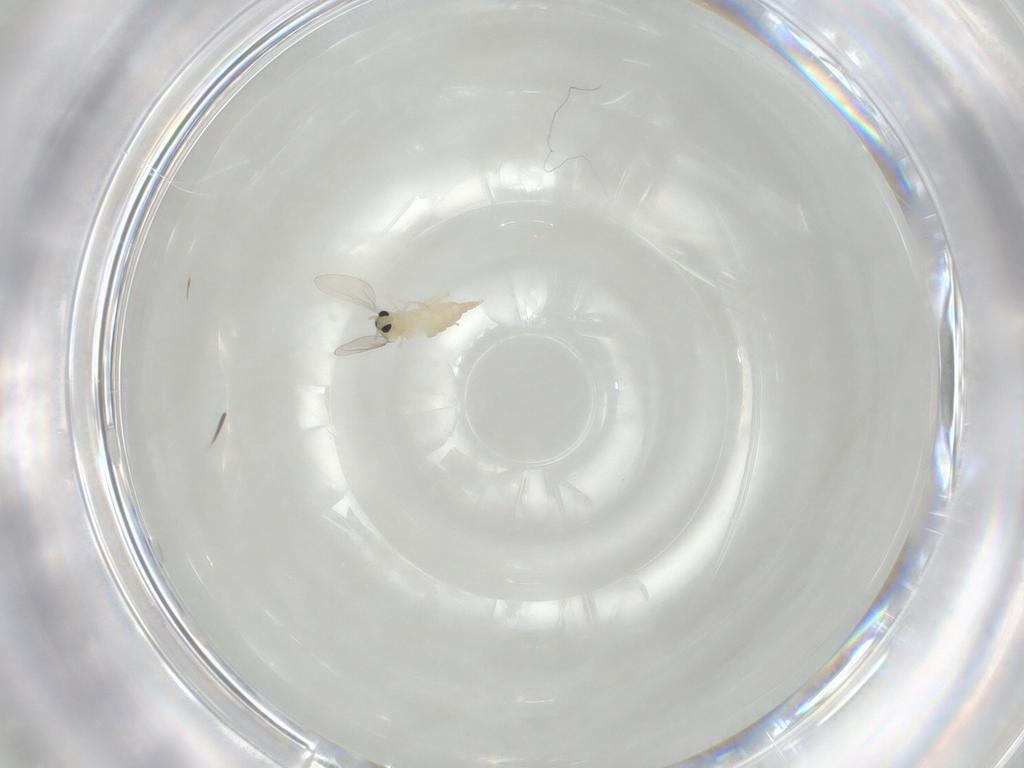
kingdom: Animalia
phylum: Arthropoda
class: Insecta
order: Diptera
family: Cecidomyiidae
